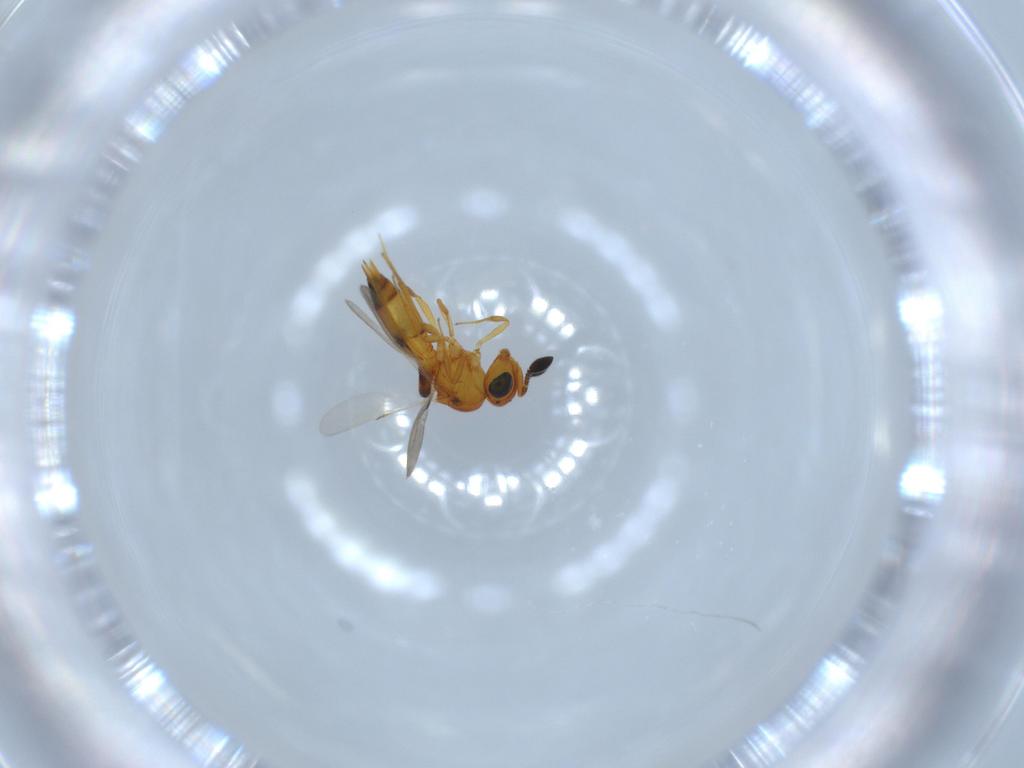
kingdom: Animalia
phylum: Arthropoda
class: Insecta
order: Hymenoptera
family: Scelionidae
